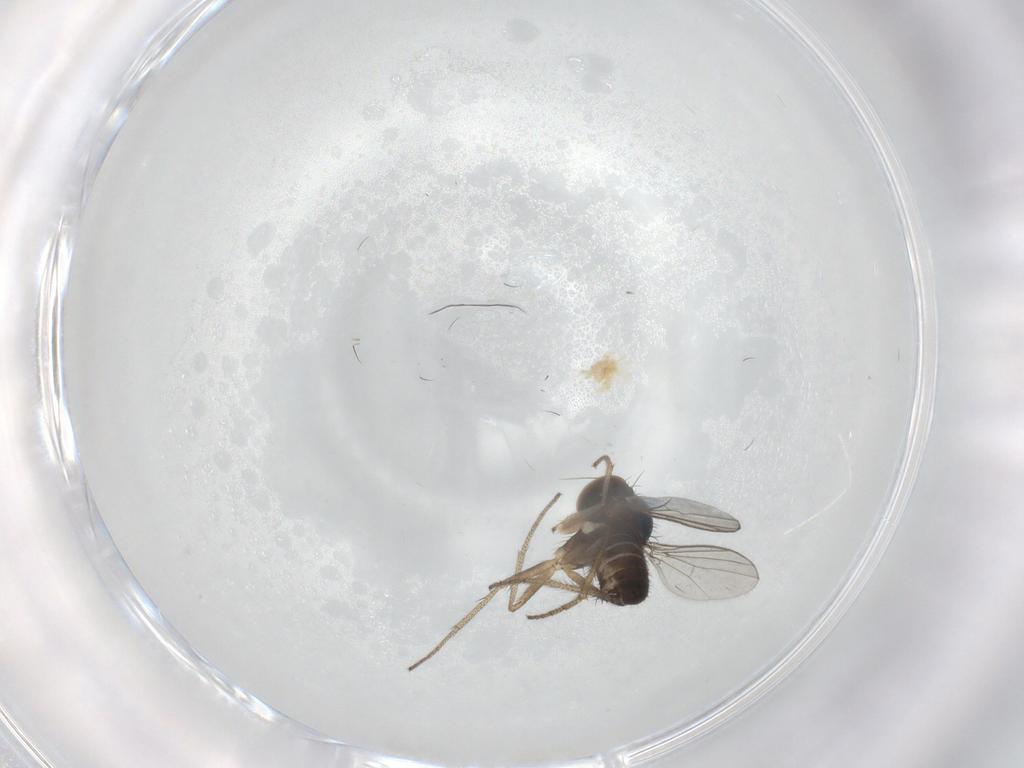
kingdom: Animalia
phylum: Arthropoda
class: Insecta
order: Diptera
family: Dolichopodidae
